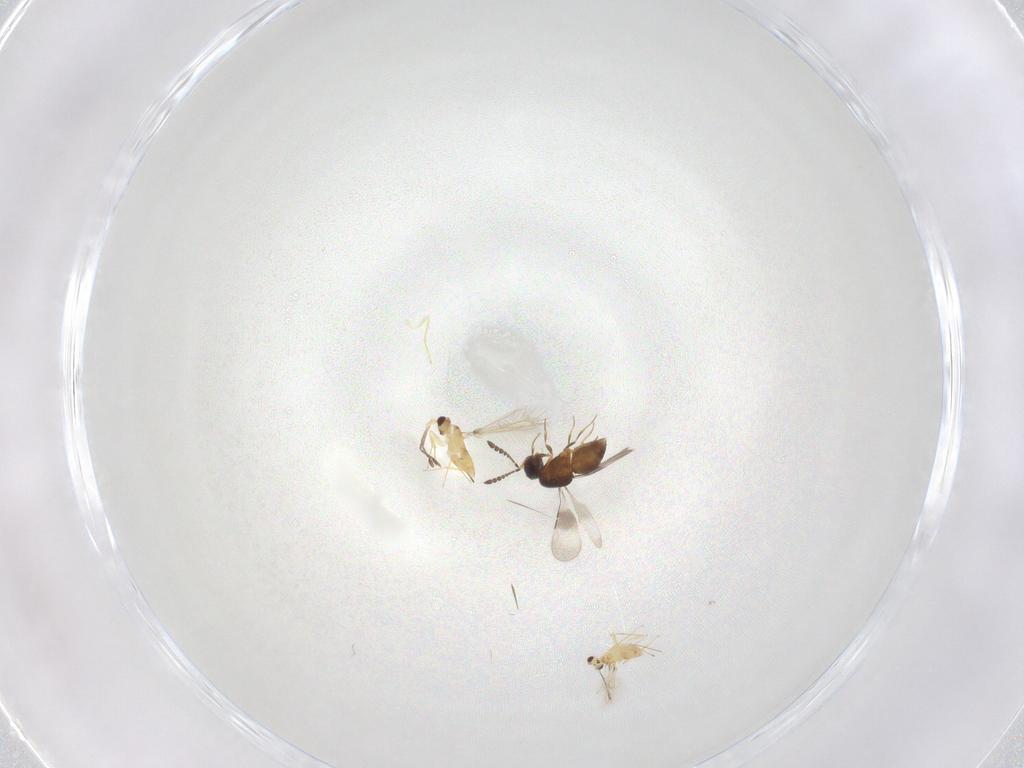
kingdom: Animalia
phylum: Arthropoda
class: Insecta
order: Hymenoptera
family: Mymaridae
